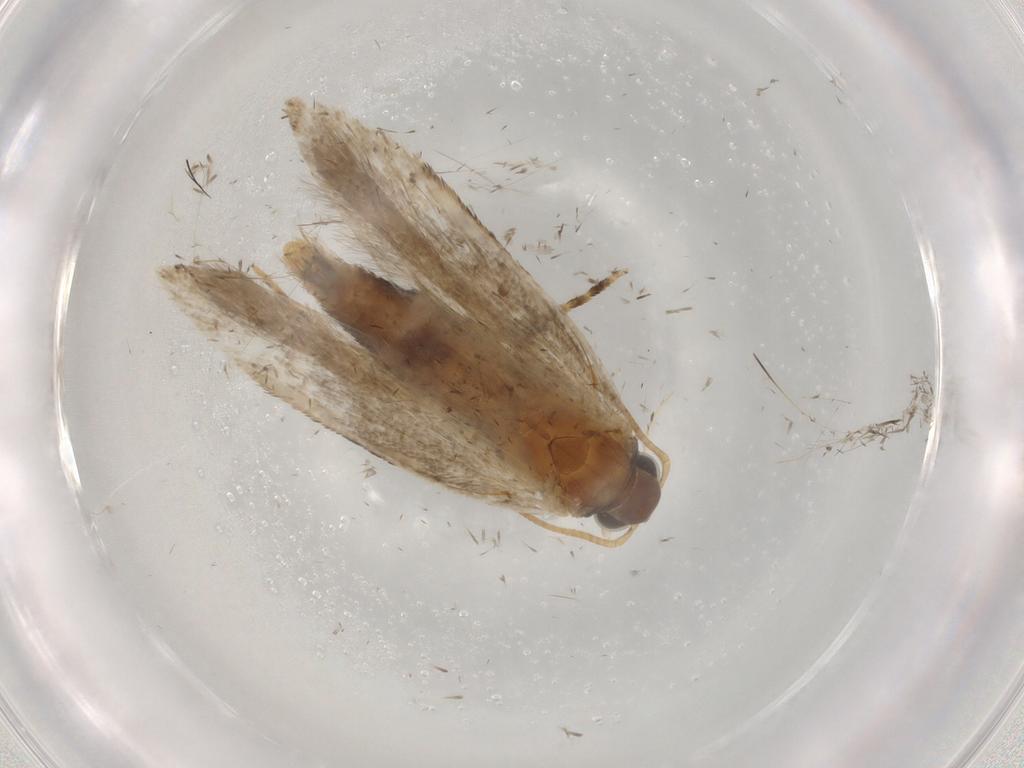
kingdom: Animalia
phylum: Arthropoda
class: Insecta
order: Lepidoptera
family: Gelechiidae
